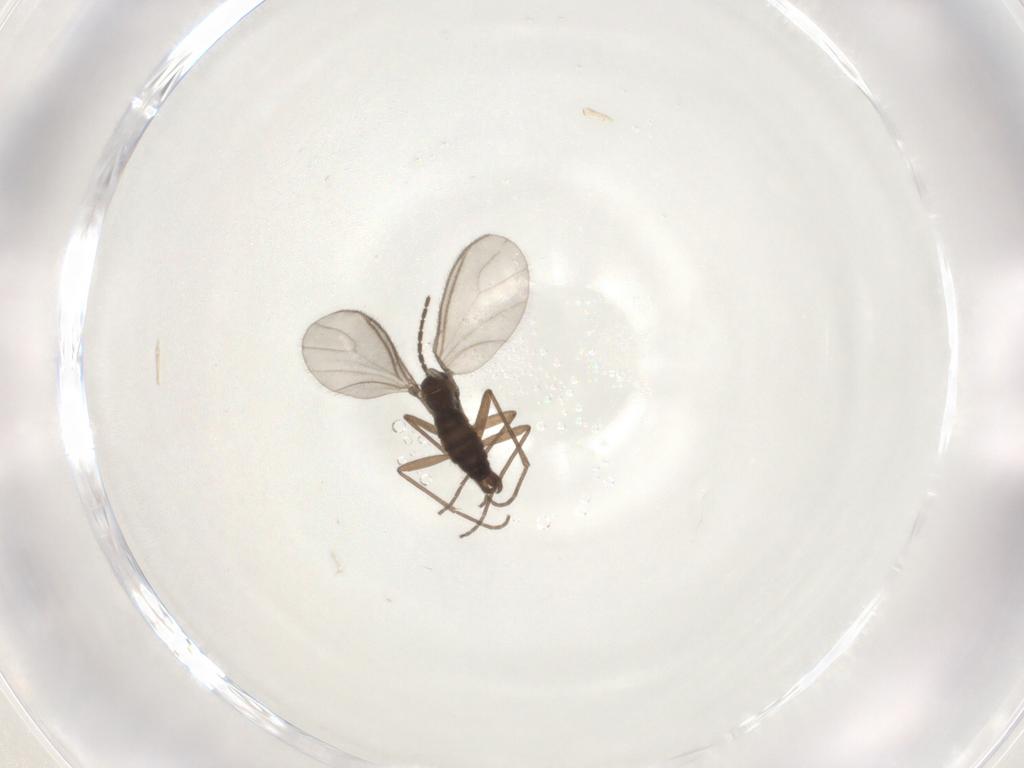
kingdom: Animalia
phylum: Arthropoda
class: Insecta
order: Diptera
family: Sciaridae
